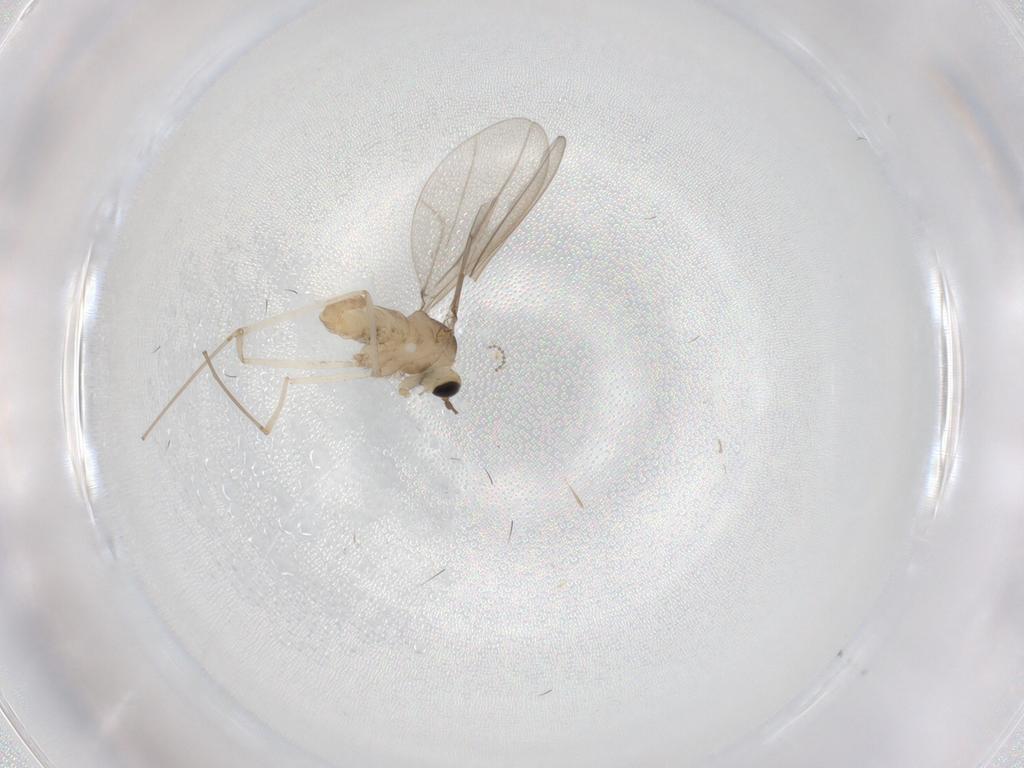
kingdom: Animalia
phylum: Arthropoda
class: Insecta
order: Diptera
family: Cecidomyiidae
